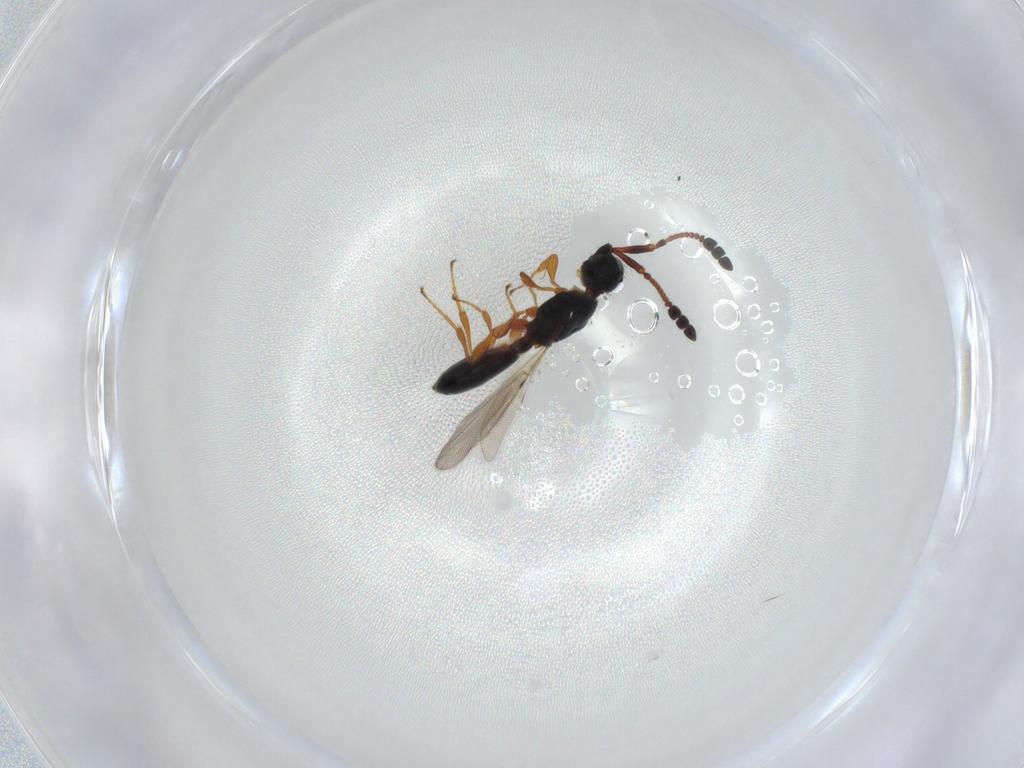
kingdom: Animalia
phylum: Arthropoda
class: Insecta
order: Hymenoptera
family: Diapriidae
